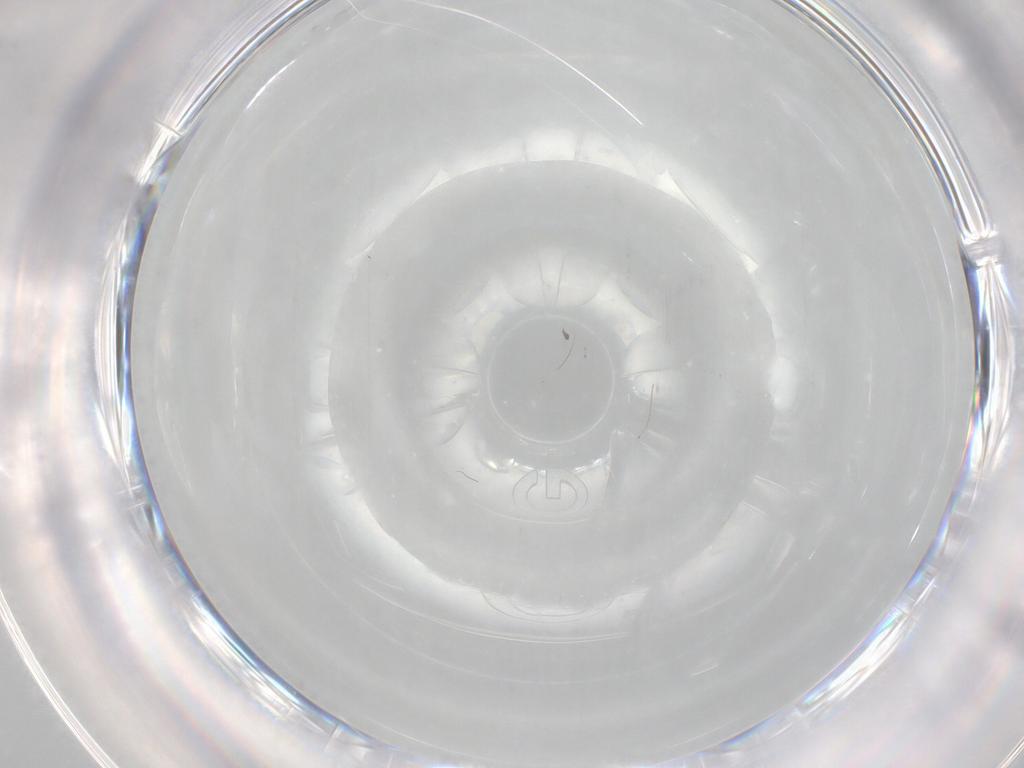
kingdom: Animalia
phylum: Arthropoda
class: Insecta
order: Diptera
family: Cecidomyiidae
